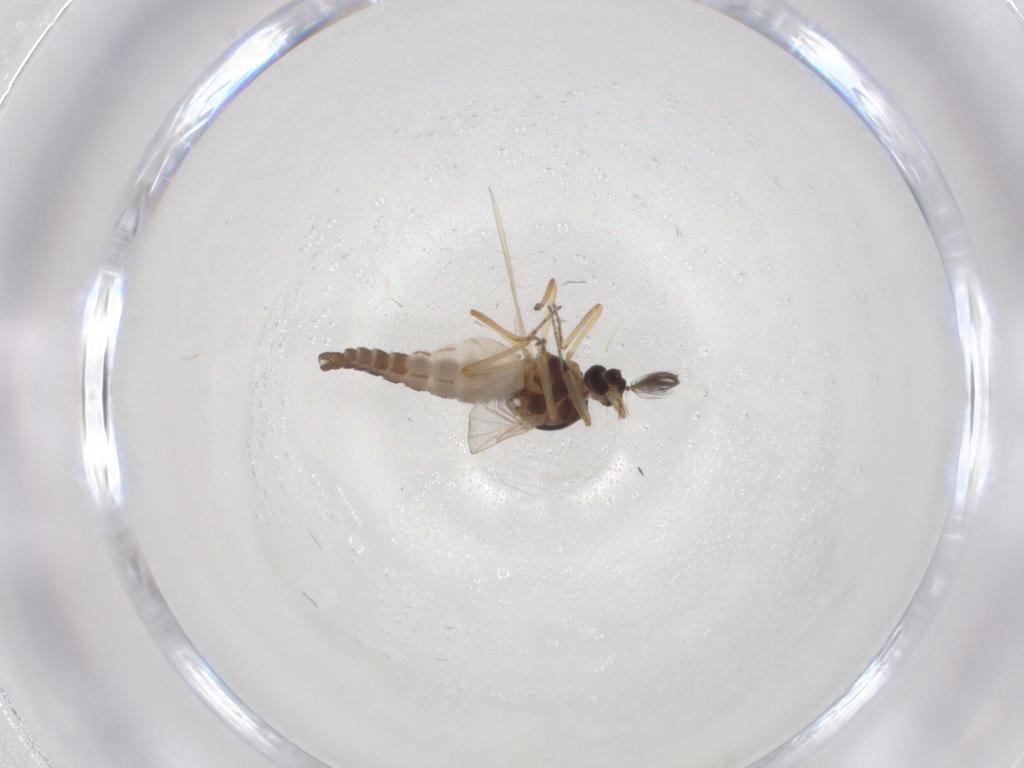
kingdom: Animalia
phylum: Arthropoda
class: Insecta
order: Diptera
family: Ceratopogonidae
